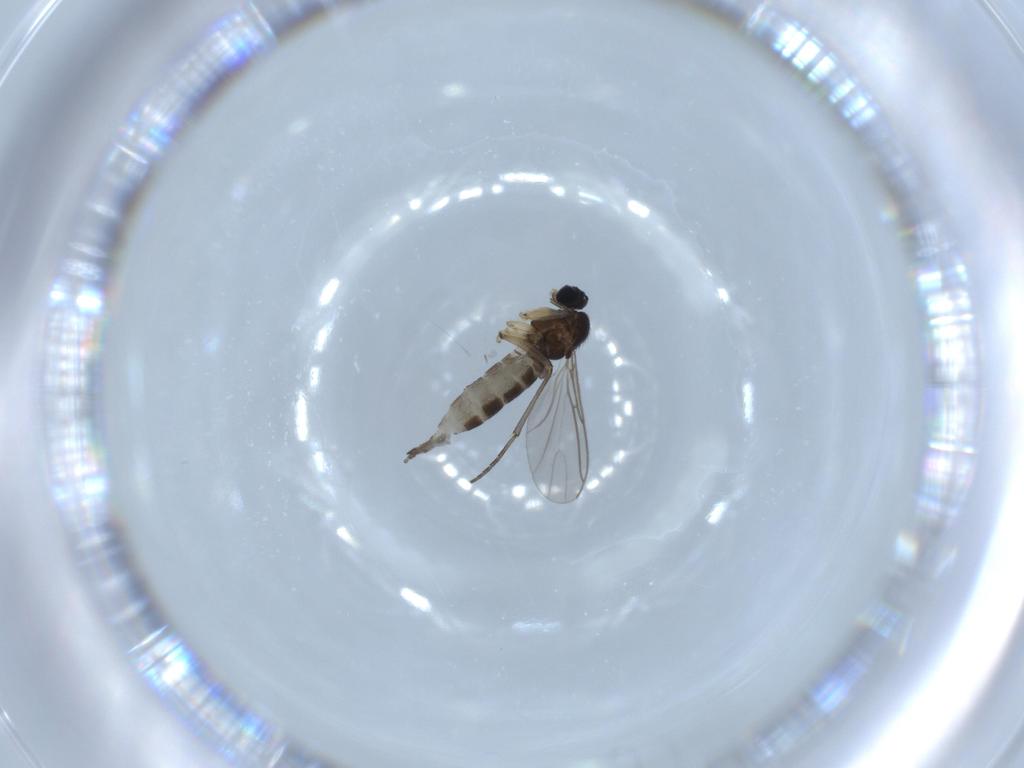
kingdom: Animalia
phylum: Arthropoda
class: Insecta
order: Diptera
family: Sciaridae
